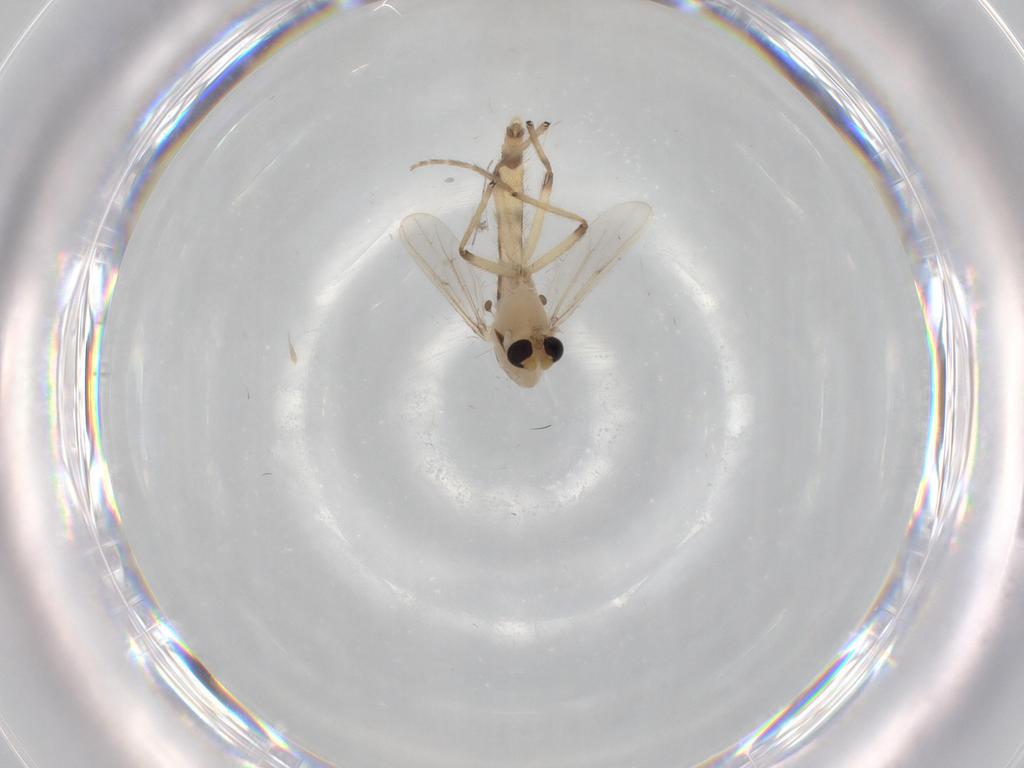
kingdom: Animalia
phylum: Arthropoda
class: Insecta
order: Diptera
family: Chironomidae
